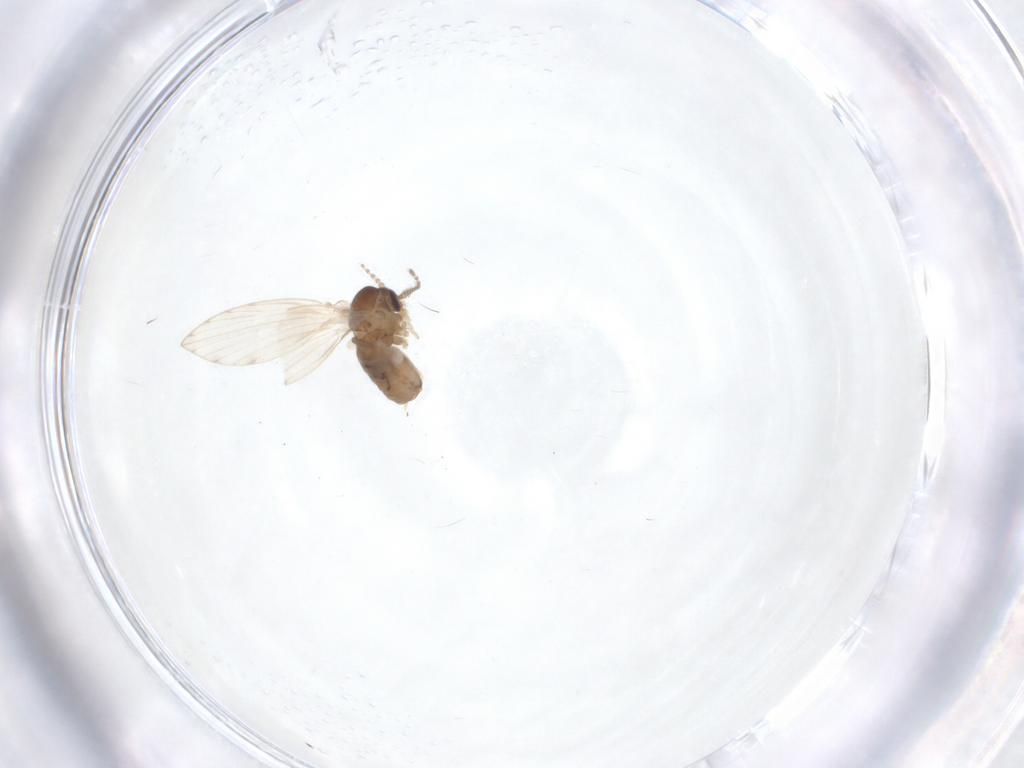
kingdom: Animalia
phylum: Arthropoda
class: Insecta
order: Diptera
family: Psychodidae
